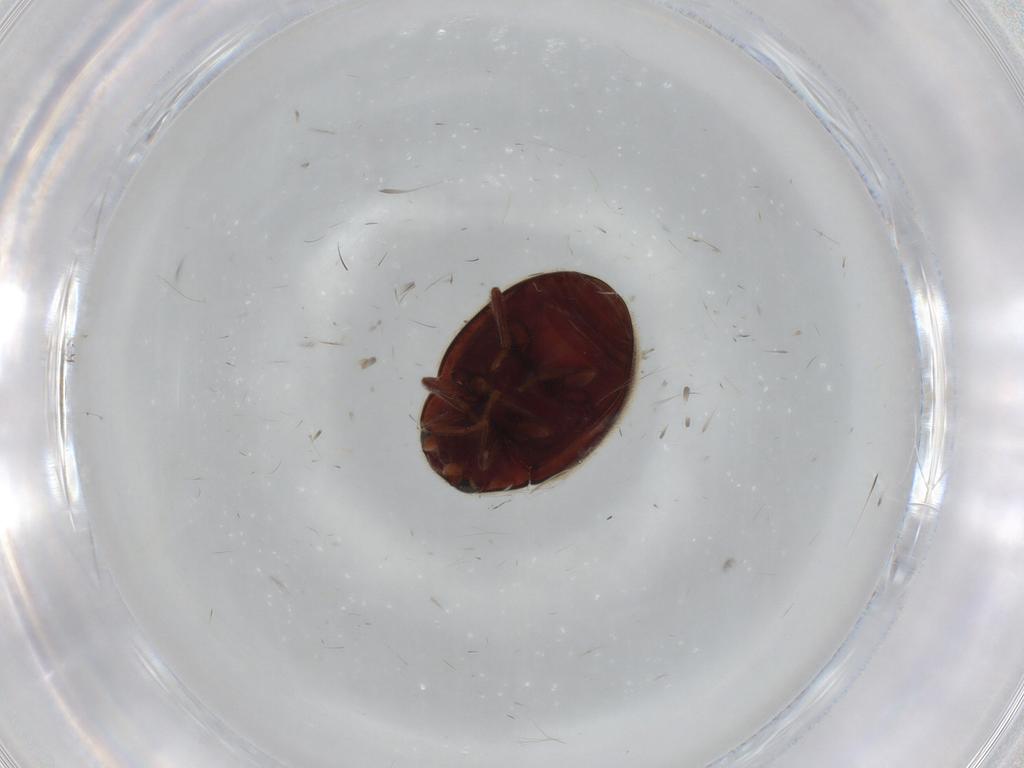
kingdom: Animalia
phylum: Arthropoda
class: Insecta
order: Coleoptera
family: Coccinellidae
